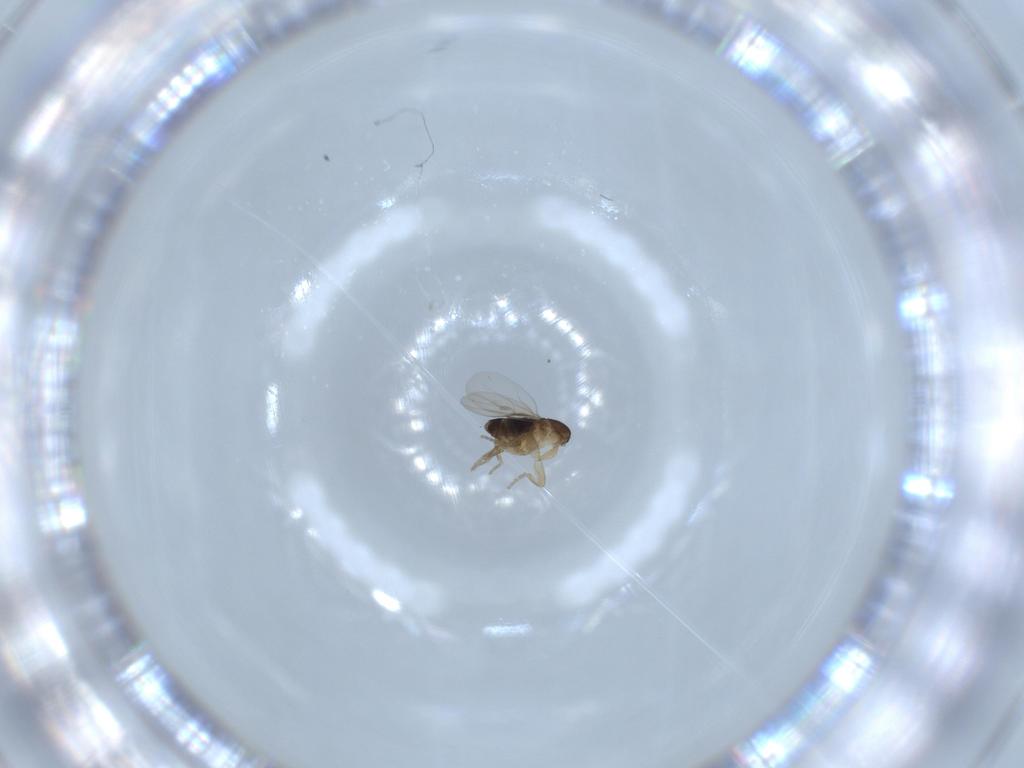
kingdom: Animalia
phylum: Arthropoda
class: Insecta
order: Diptera
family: Phoridae
